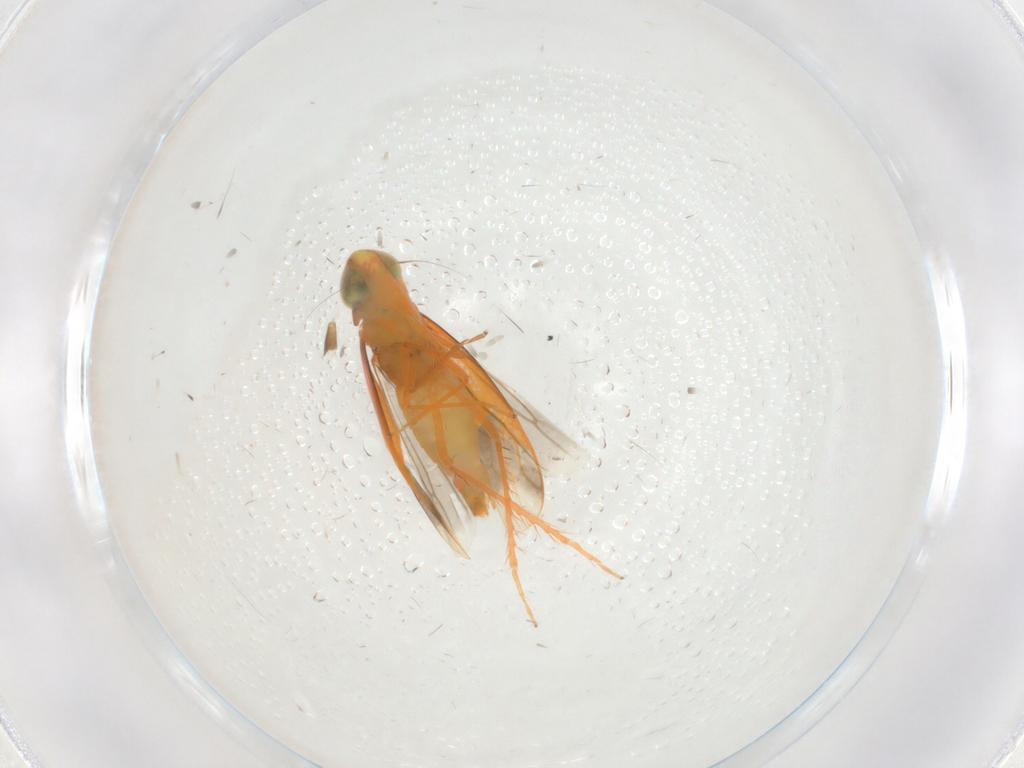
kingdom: Animalia
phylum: Arthropoda
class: Insecta
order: Hemiptera
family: Cicadellidae
